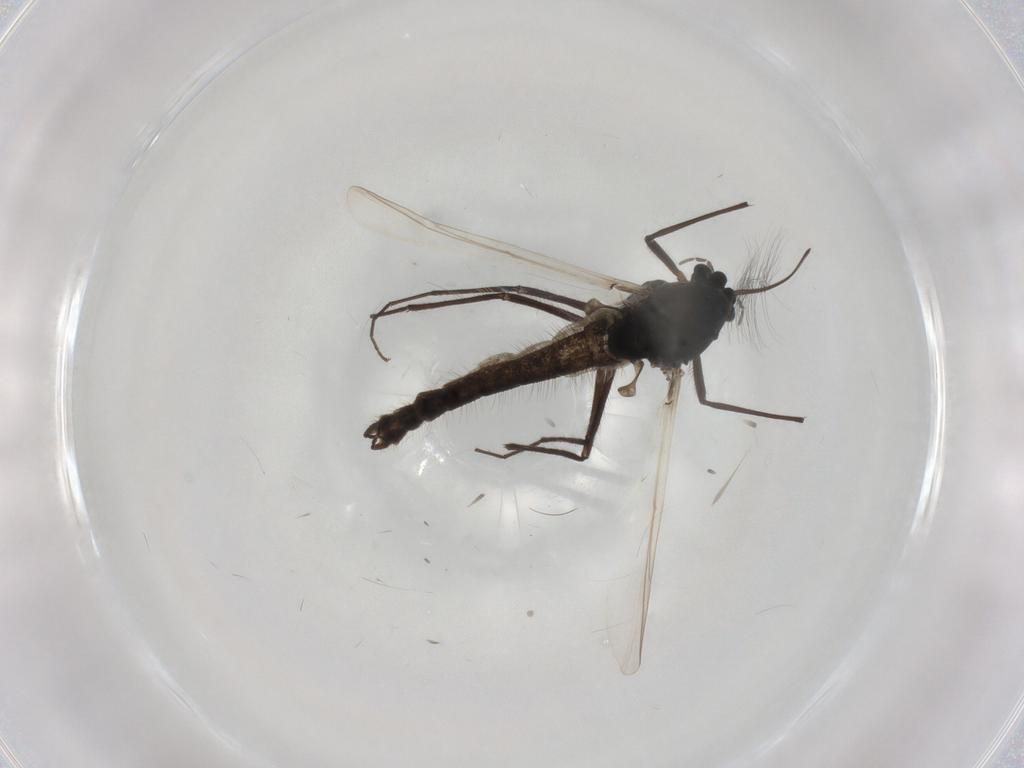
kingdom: Animalia
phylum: Arthropoda
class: Insecta
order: Diptera
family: Chironomidae
